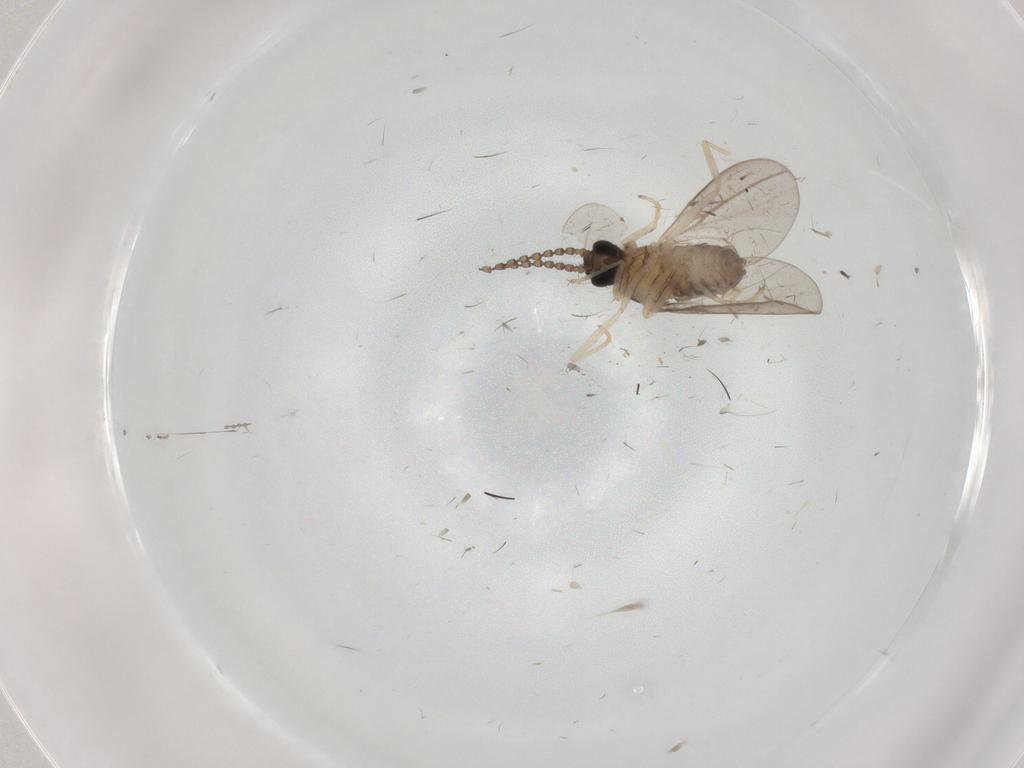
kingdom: Animalia
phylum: Arthropoda
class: Insecta
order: Diptera
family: Cecidomyiidae
